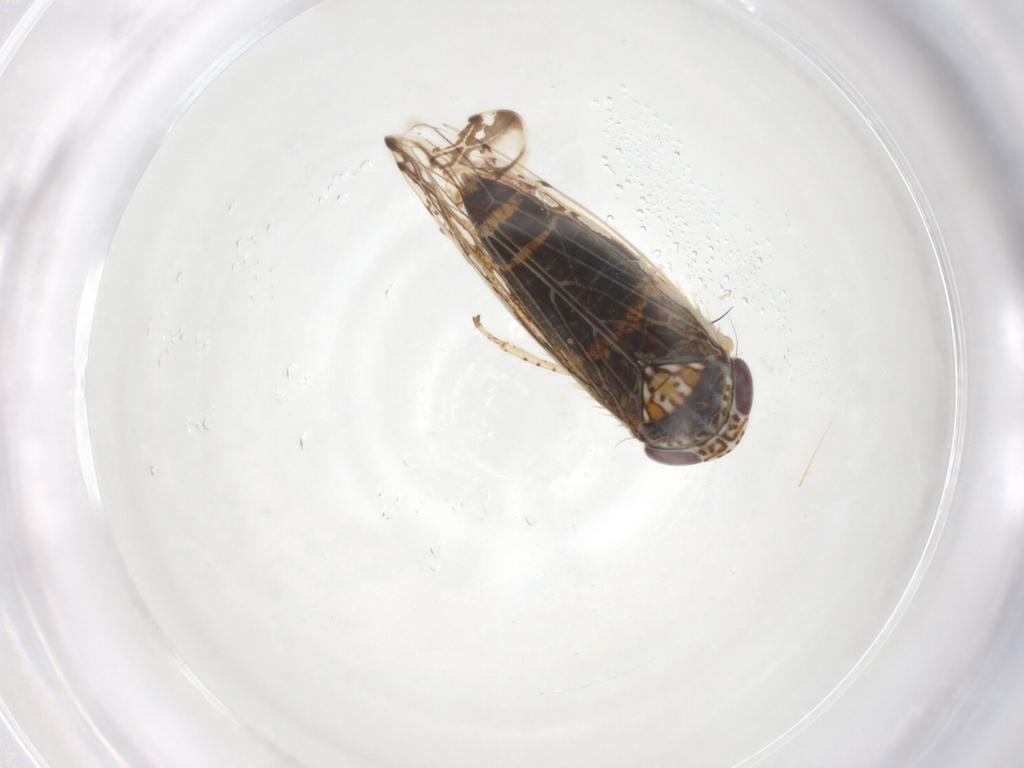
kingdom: Animalia
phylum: Arthropoda
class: Insecta
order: Hemiptera
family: Cicadellidae
